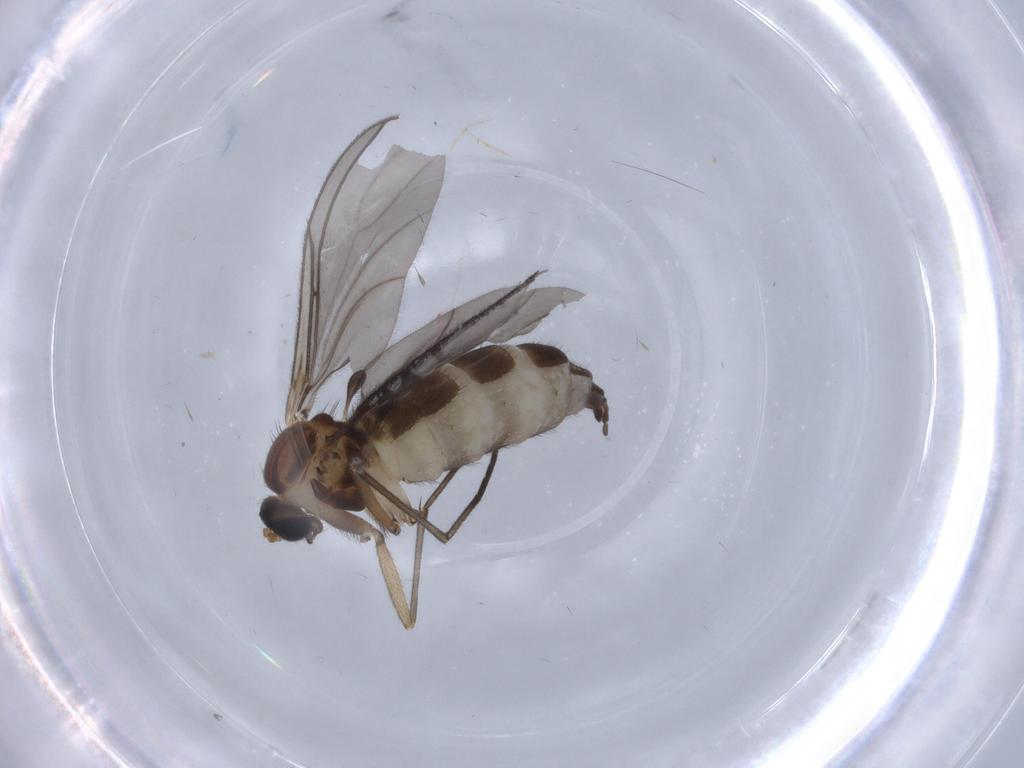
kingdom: Animalia
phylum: Arthropoda
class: Insecta
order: Diptera
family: Sciaridae
